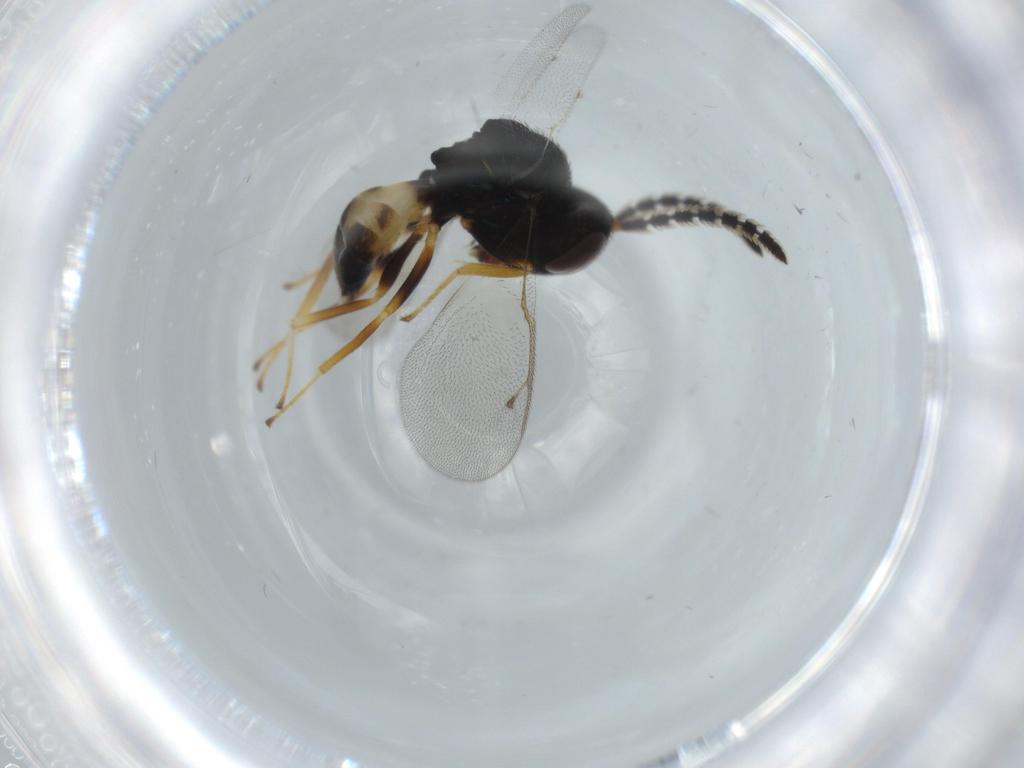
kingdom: Animalia
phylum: Arthropoda
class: Insecta
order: Hymenoptera
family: Pteromalidae
